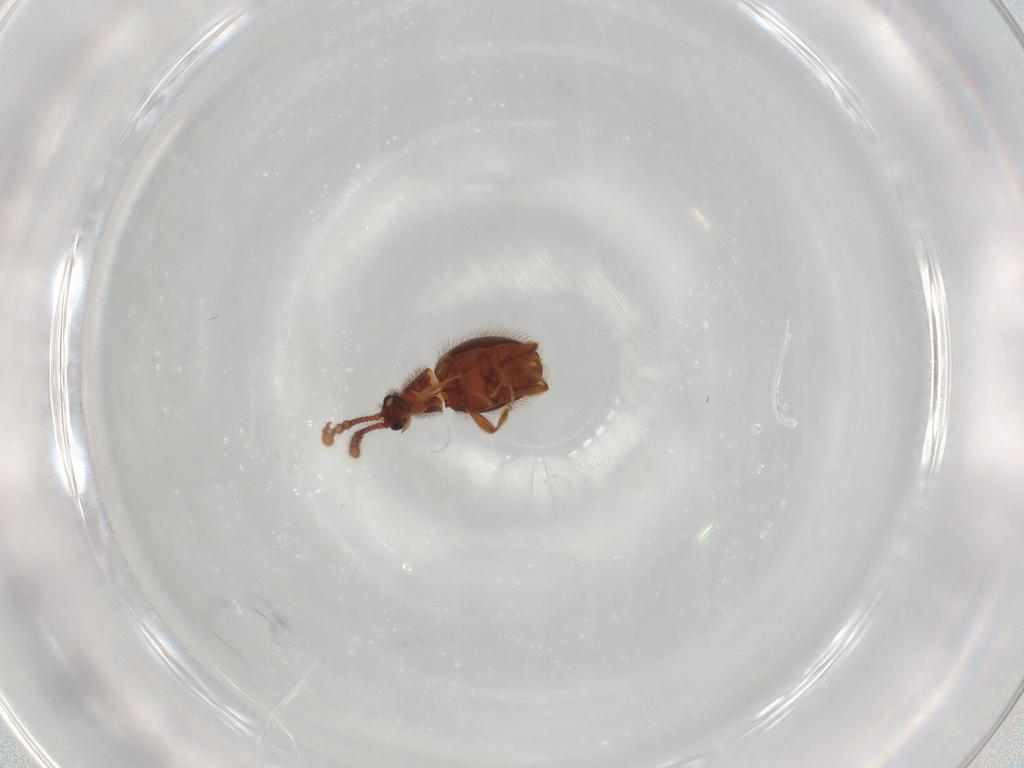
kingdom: Animalia
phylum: Arthropoda
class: Insecta
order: Coleoptera
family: Staphylinidae
